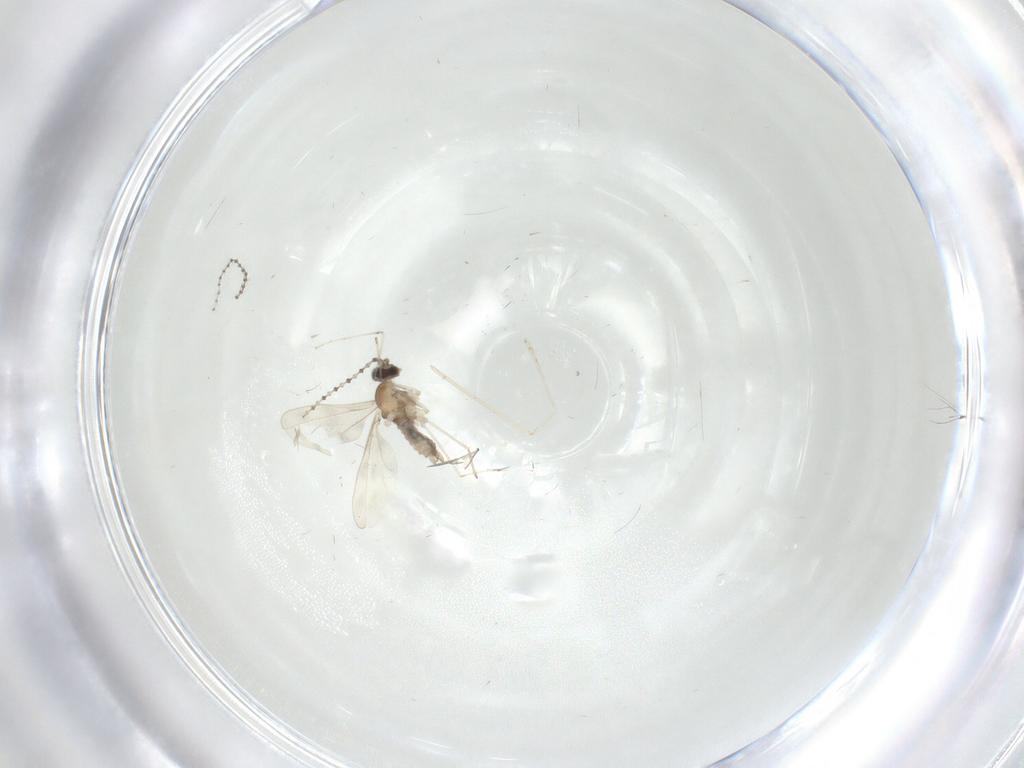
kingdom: Animalia
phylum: Arthropoda
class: Insecta
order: Diptera
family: Cecidomyiidae
